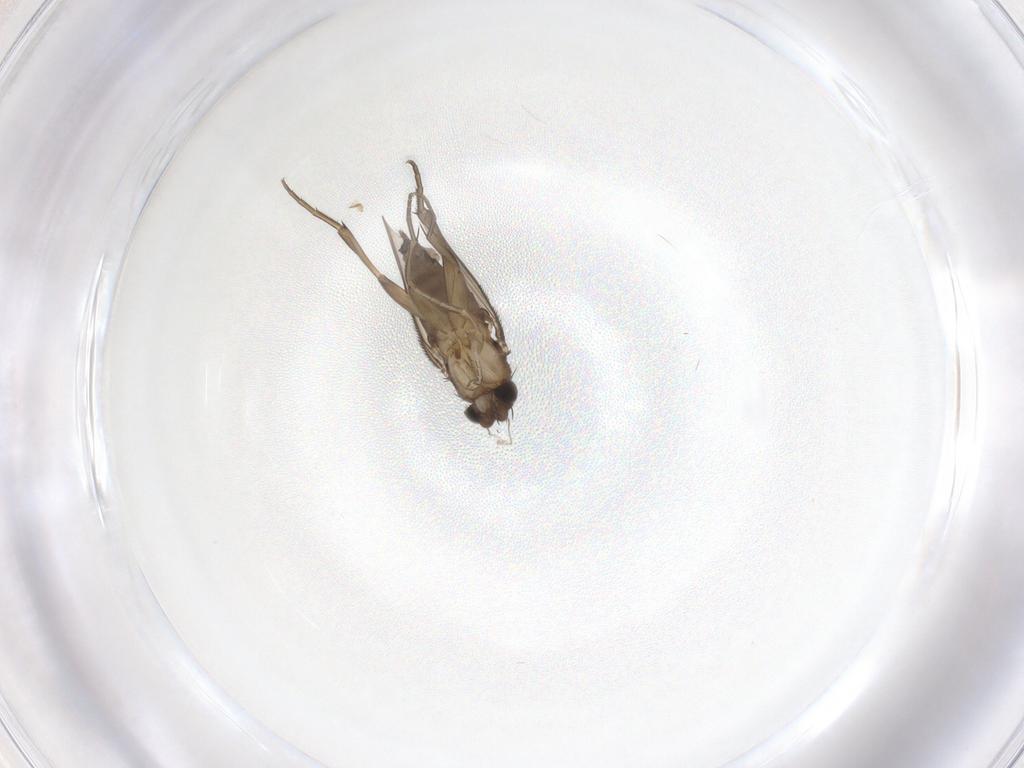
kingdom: Animalia
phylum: Arthropoda
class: Insecta
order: Diptera
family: Phoridae
